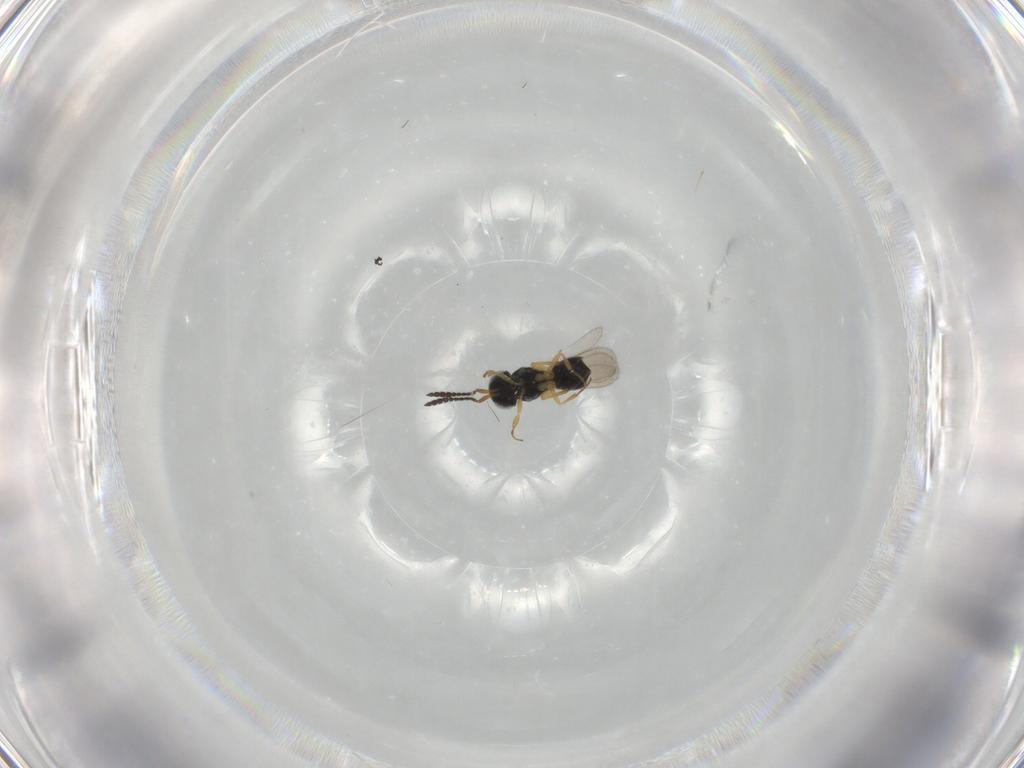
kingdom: Animalia
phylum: Arthropoda
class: Insecta
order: Hymenoptera
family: Scelionidae
